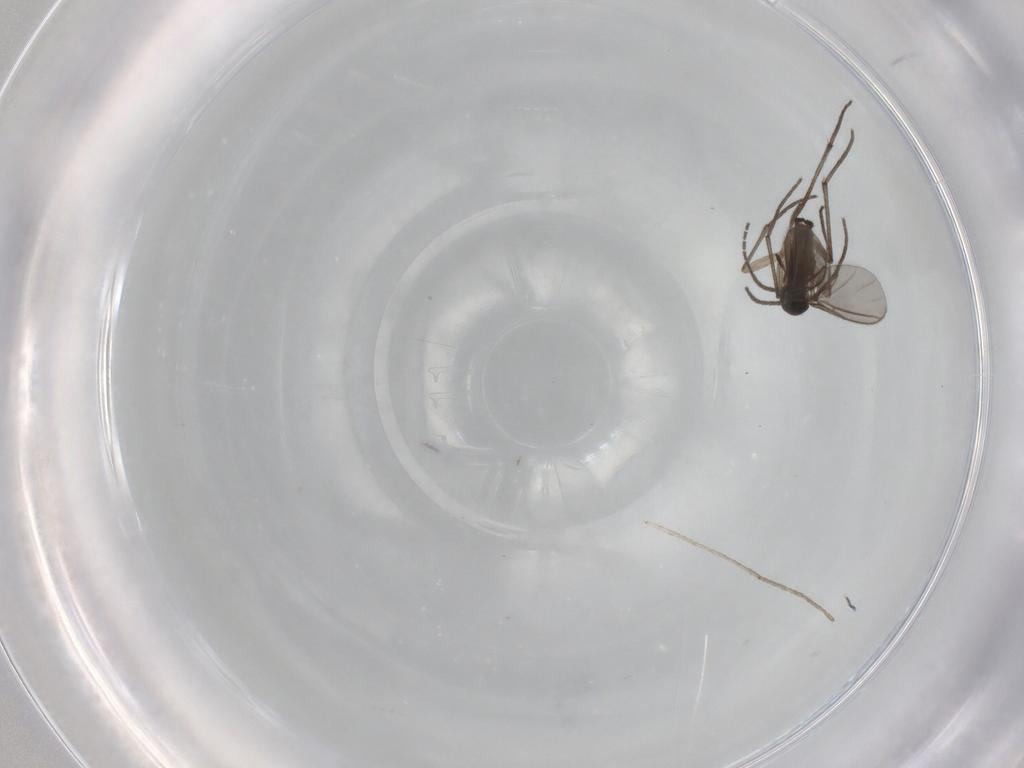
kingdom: Animalia
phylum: Arthropoda
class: Insecta
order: Diptera
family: Sciaridae
